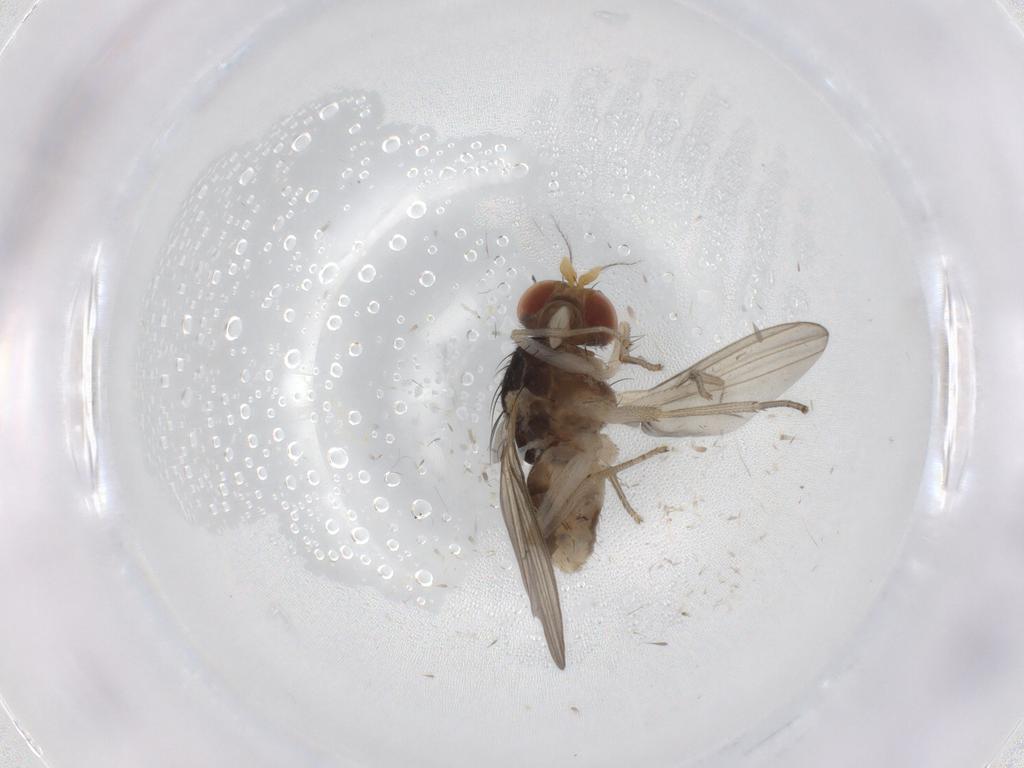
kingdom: Animalia
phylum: Arthropoda
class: Insecta
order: Diptera
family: Lauxaniidae
